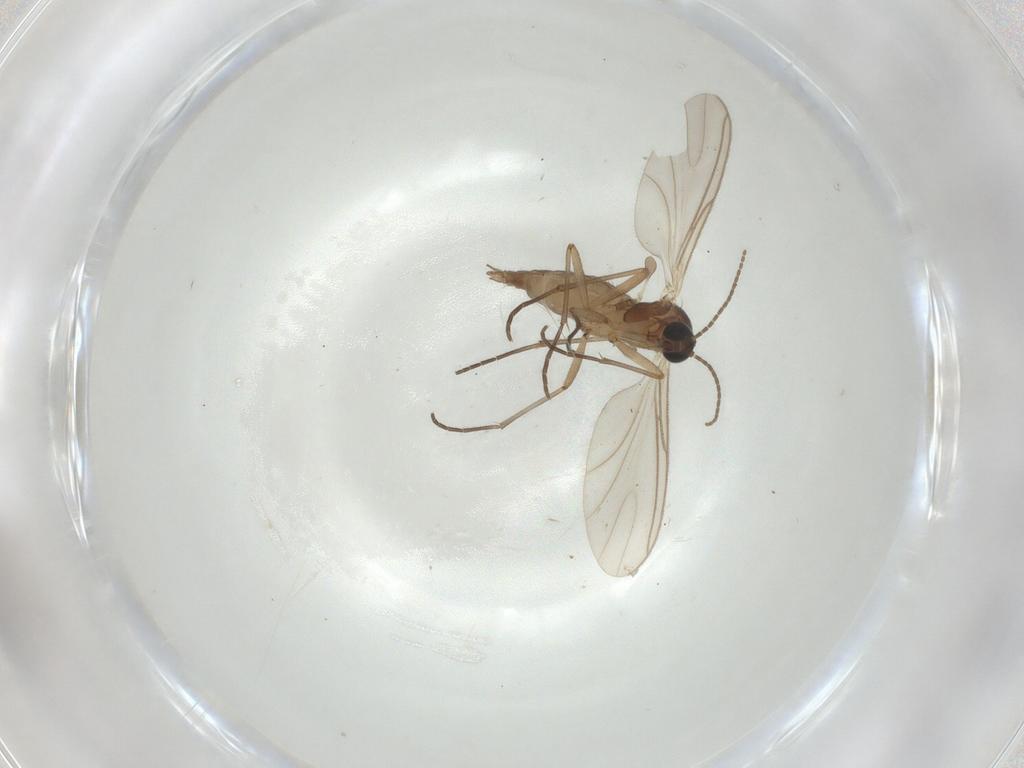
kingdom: Animalia
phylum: Arthropoda
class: Insecta
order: Diptera
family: Sciaridae
